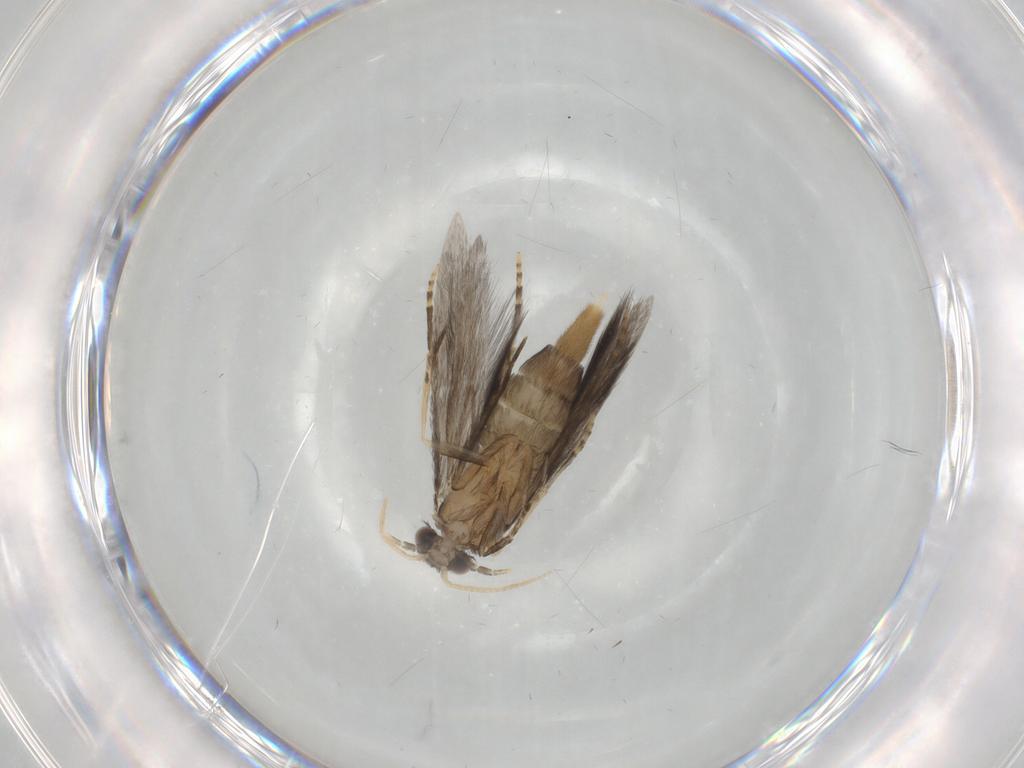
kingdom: Animalia
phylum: Arthropoda
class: Insecta
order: Trichoptera
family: Hydroptilidae
